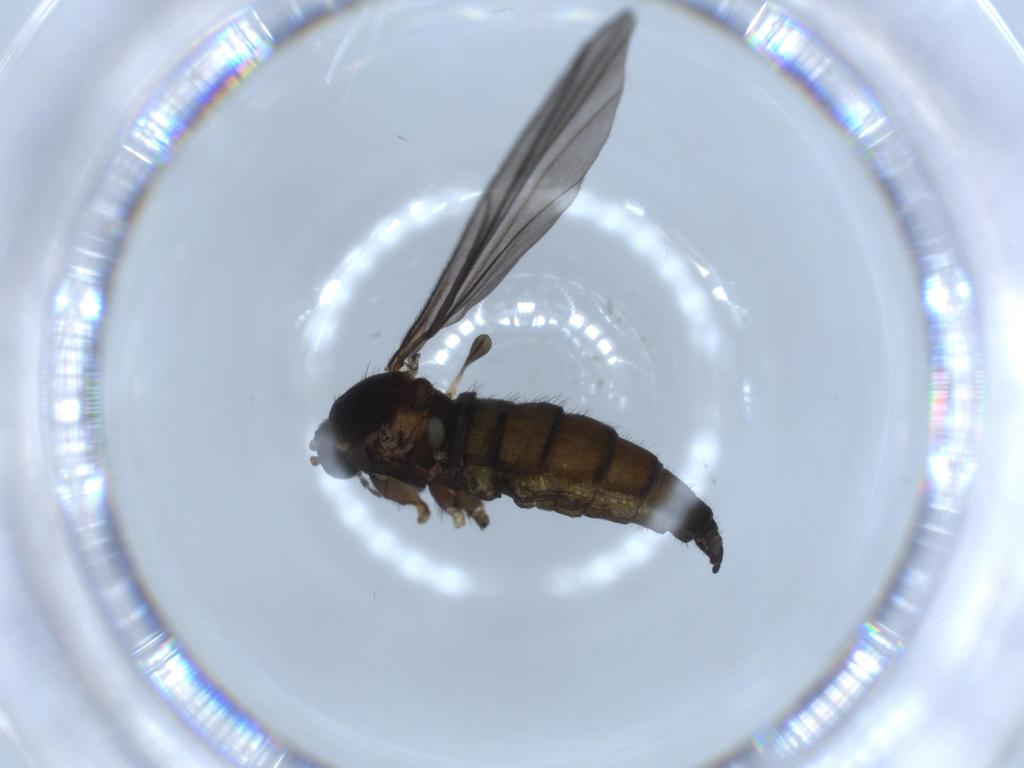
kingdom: Animalia
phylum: Arthropoda
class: Insecta
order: Diptera
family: Sciaridae
